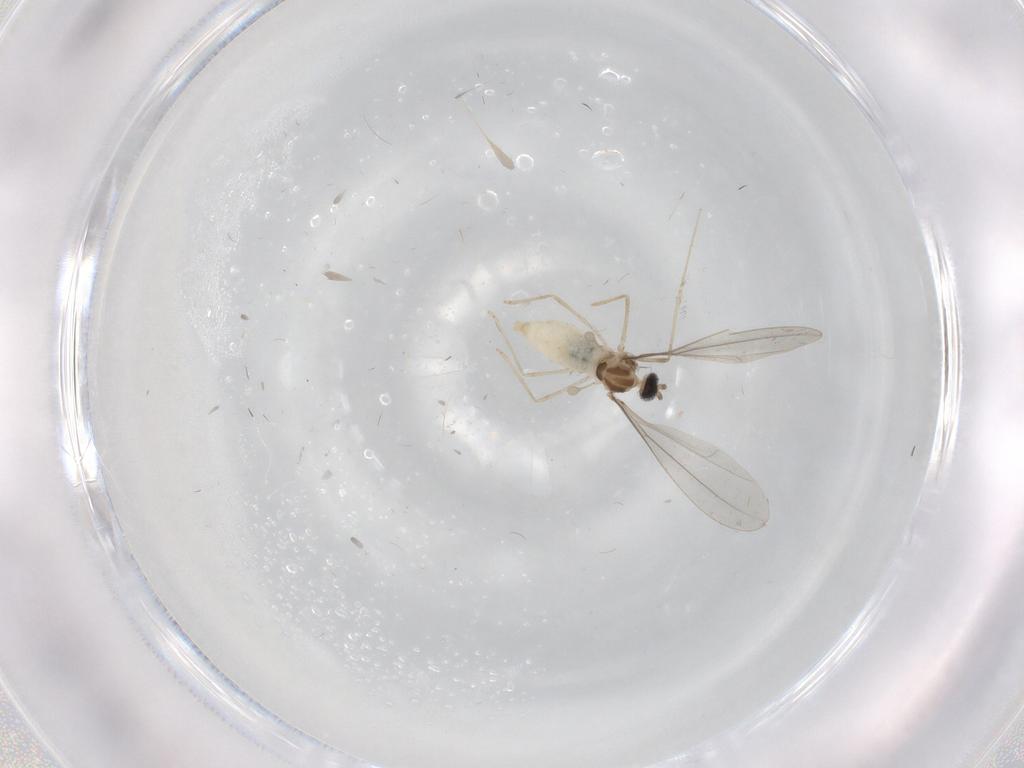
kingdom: Animalia
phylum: Arthropoda
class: Insecta
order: Diptera
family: Cecidomyiidae
